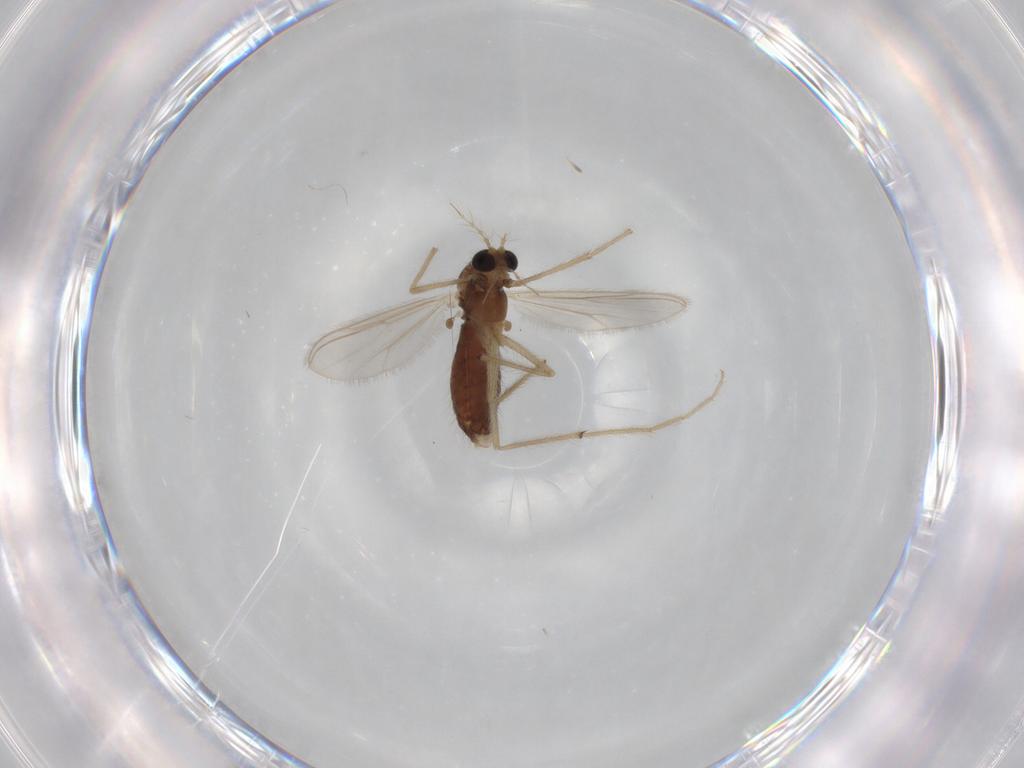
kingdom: Animalia
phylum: Arthropoda
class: Insecta
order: Diptera
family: Chironomidae
